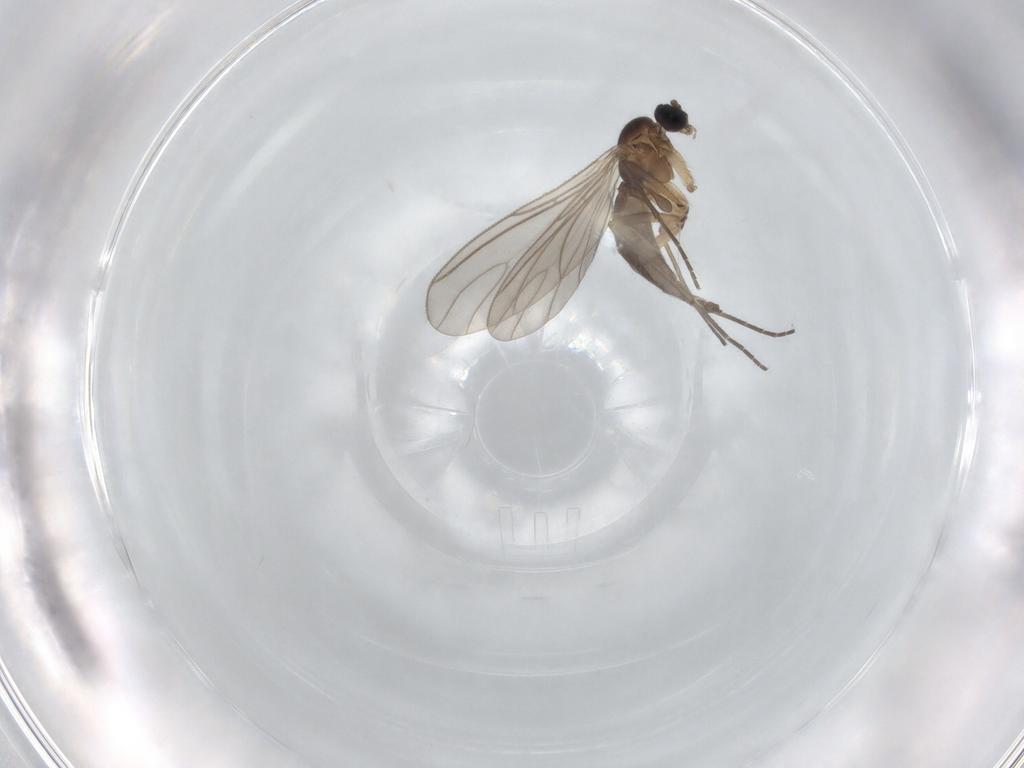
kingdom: Animalia
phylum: Arthropoda
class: Insecta
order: Diptera
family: Sciaridae
